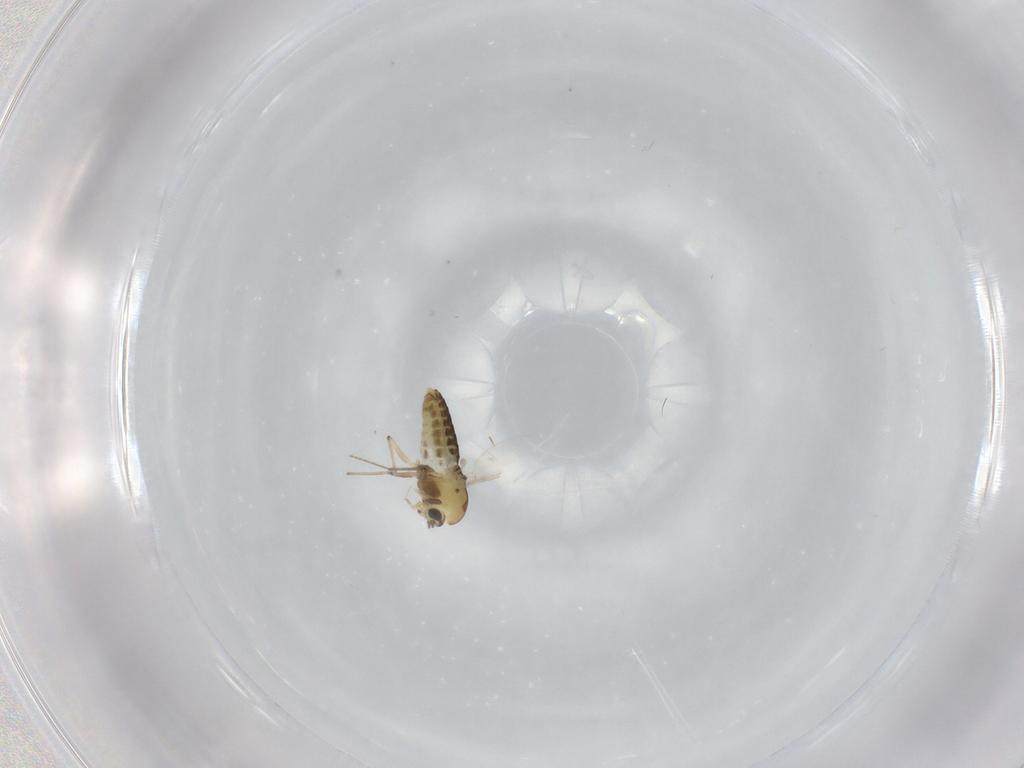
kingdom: Animalia
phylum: Arthropoda
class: Insecta
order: Diptera
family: Chironomidae
